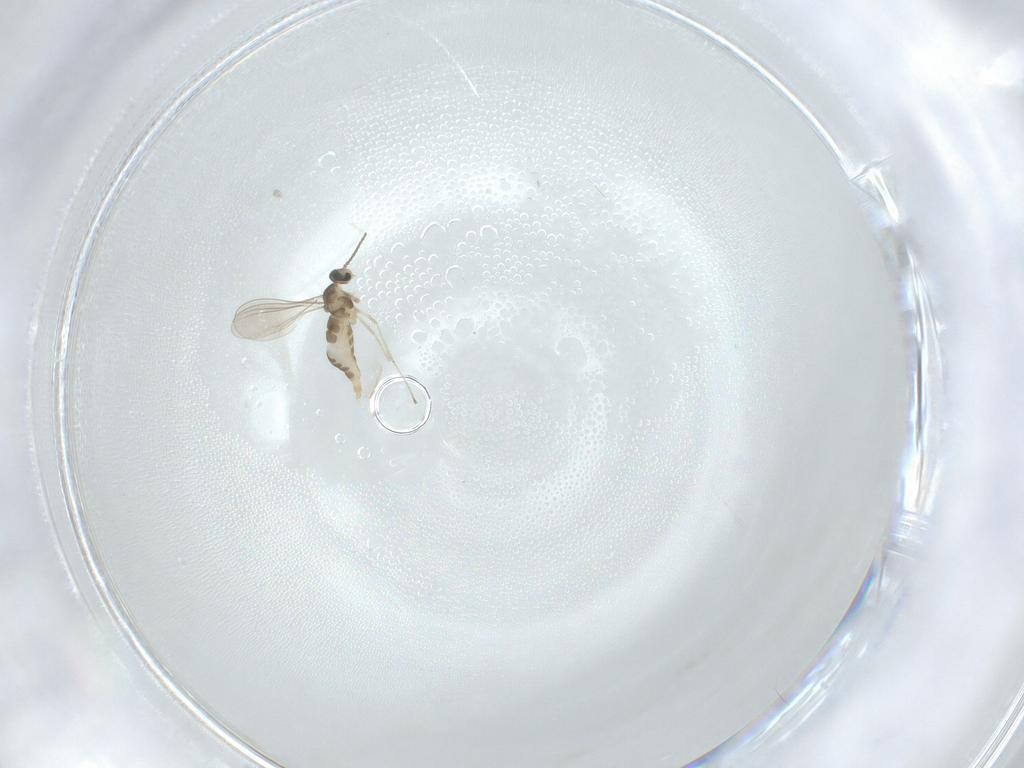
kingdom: Animalia
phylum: Arthropoda
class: Insecta
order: Diptera
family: Cecidomyiidae
